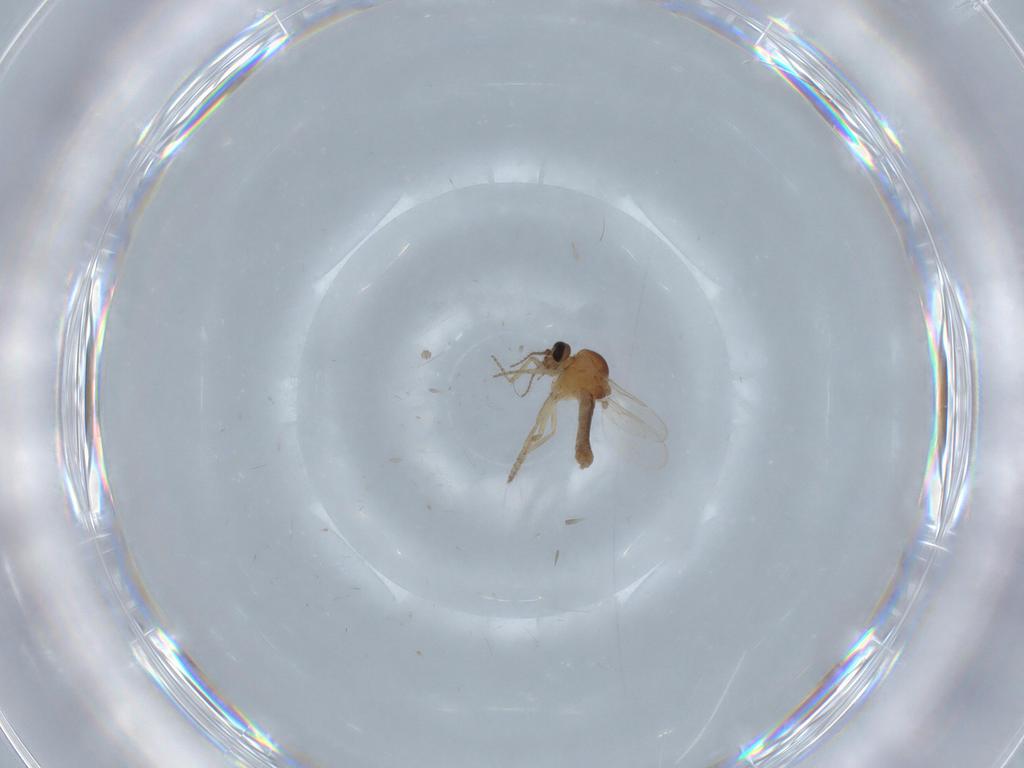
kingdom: Animalia
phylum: Arthropoda
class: Insecta
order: Diptera
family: Ceratopogonidae
